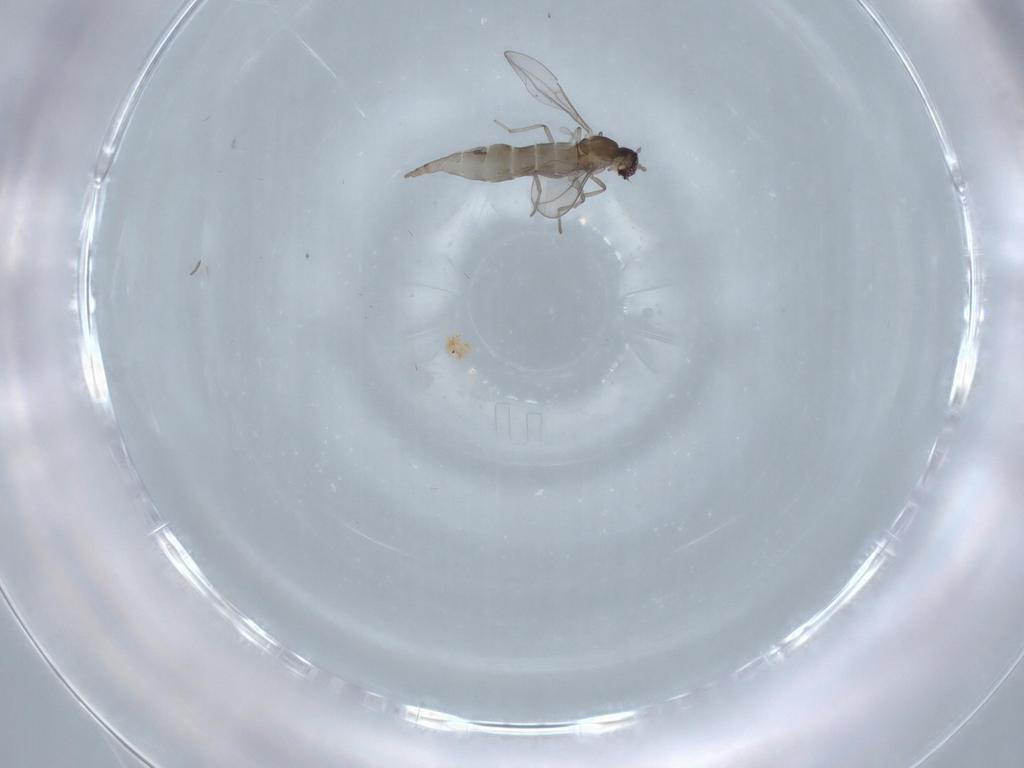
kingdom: Animalia
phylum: Arthropoda
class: Insecta
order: Diptera
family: Cecidomyiidae
